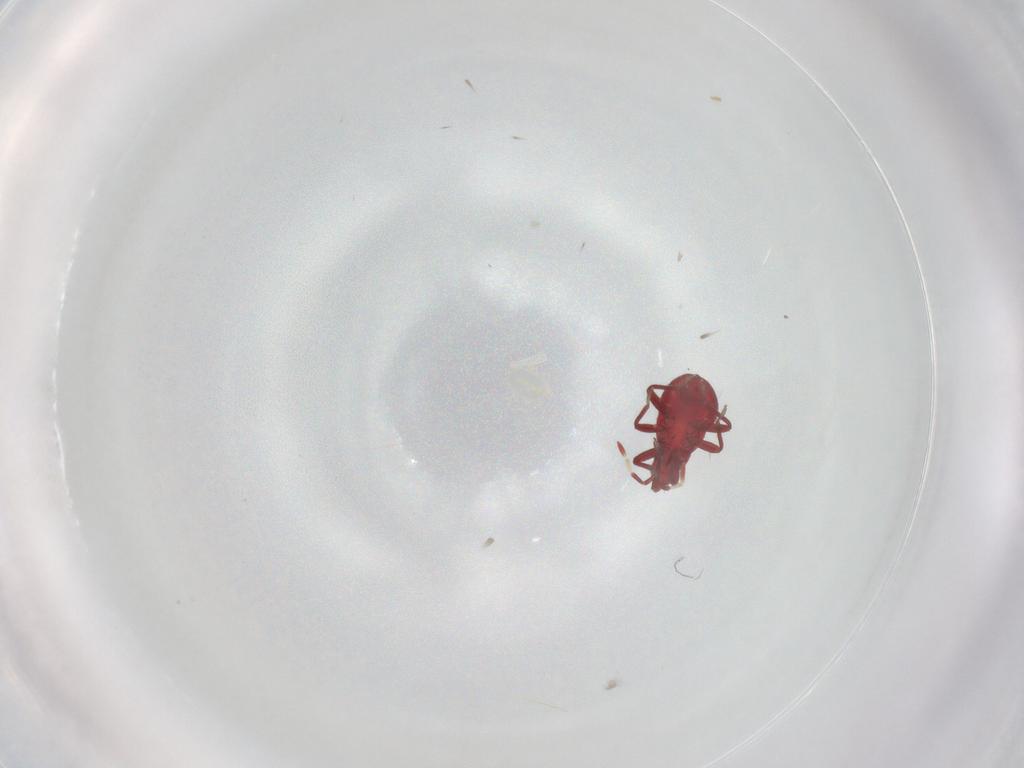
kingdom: Animalia
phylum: Arthropoda
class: Insecta
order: Hemiptera
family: Anthocoridae
